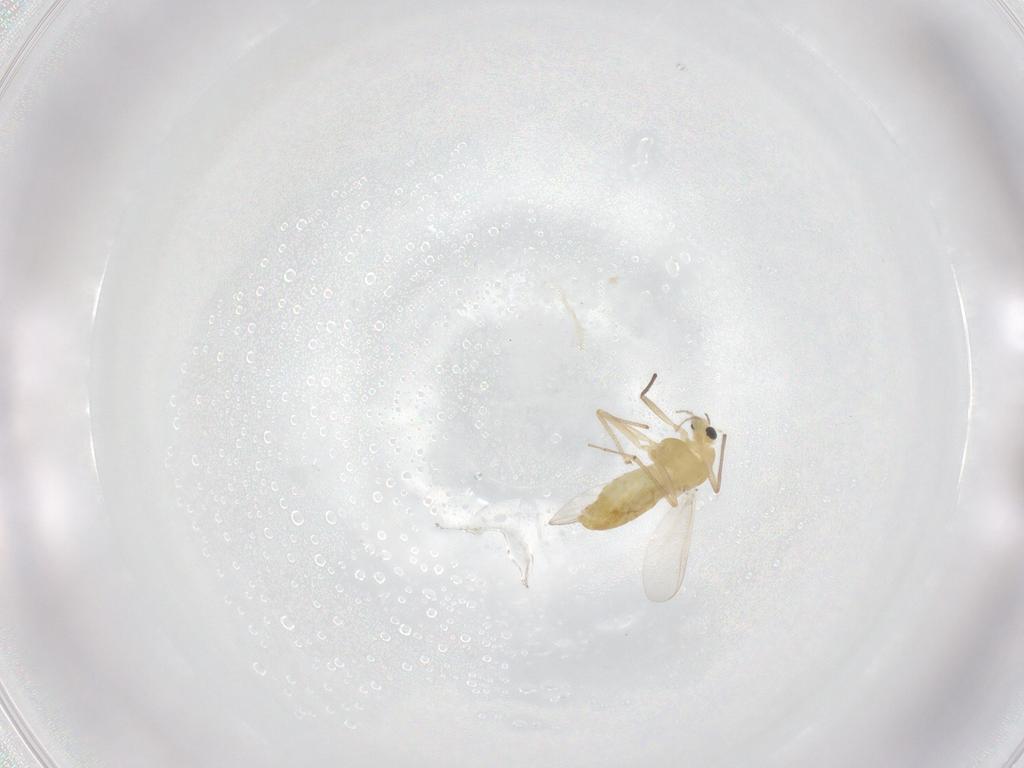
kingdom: Animalia
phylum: Arthropoda
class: Insecta
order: Diptera
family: Chironomidae
